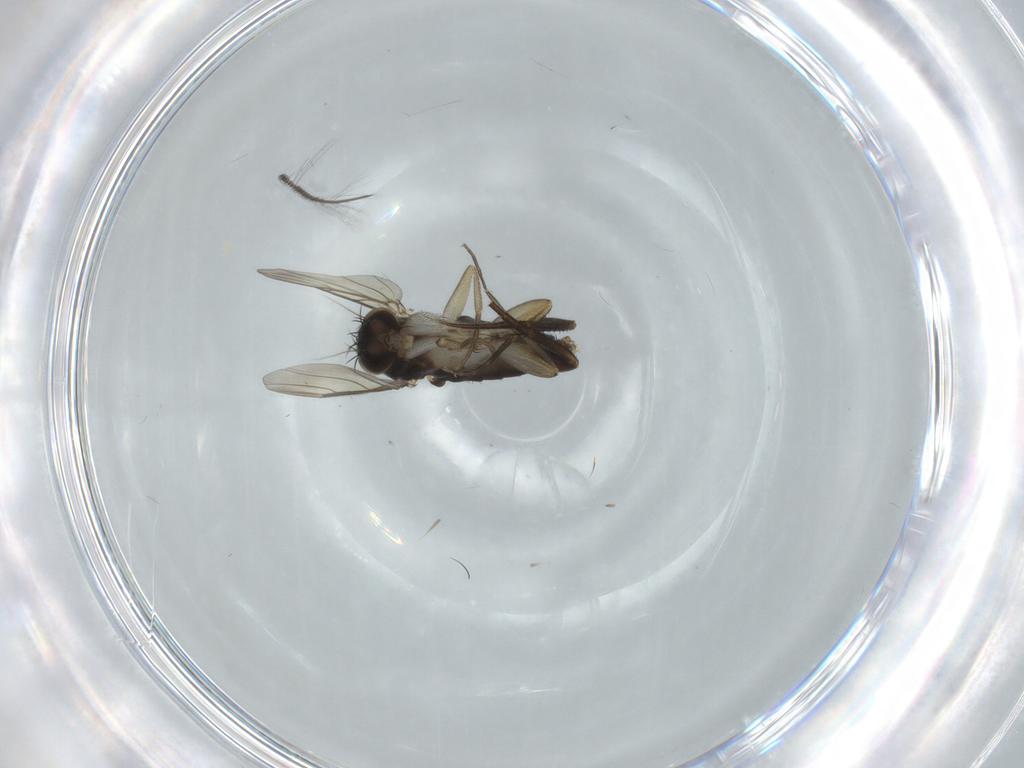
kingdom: Animalia
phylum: Arthropoda
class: Insecta
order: Diptera
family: Phoridae
